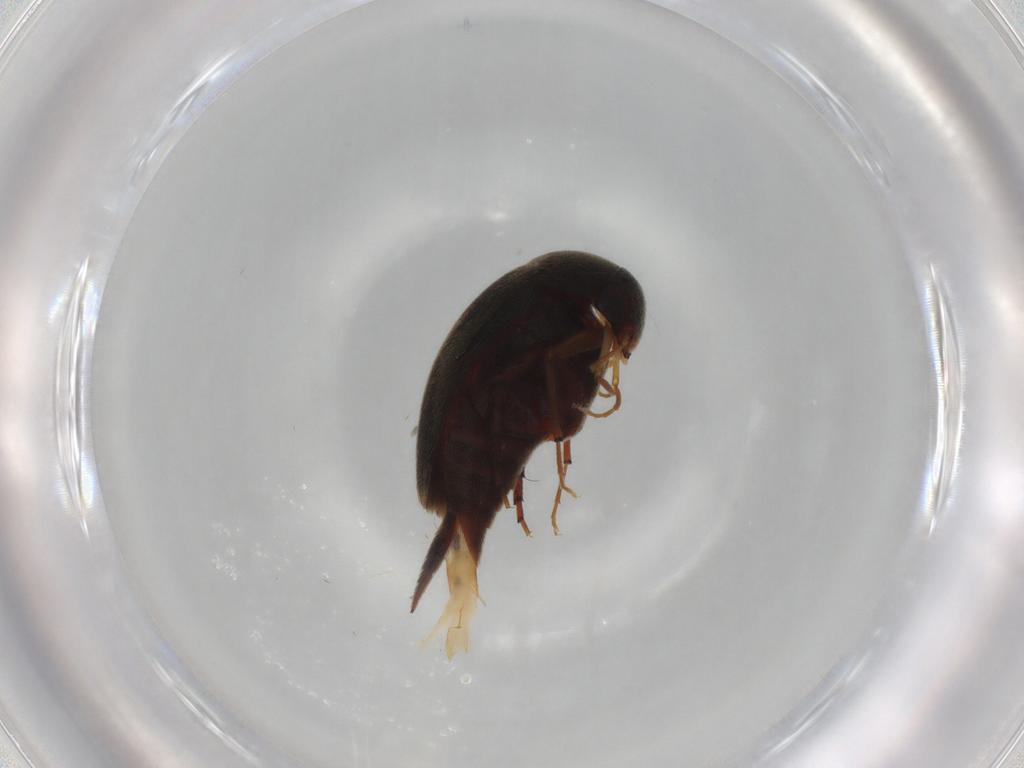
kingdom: Animalia
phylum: Arthropoda
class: Insecta
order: Coleoptera
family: Mordellidae
